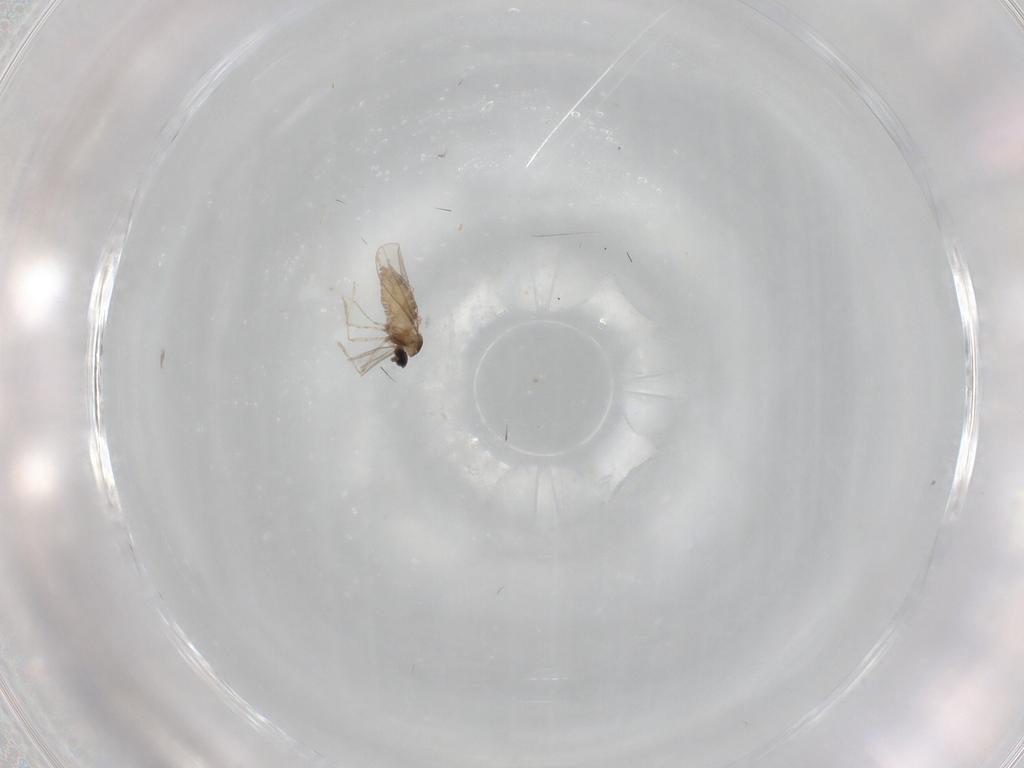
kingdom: Animalia
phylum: Arthropoda
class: Insecta
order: Diptera
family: Cecidomyiidae
